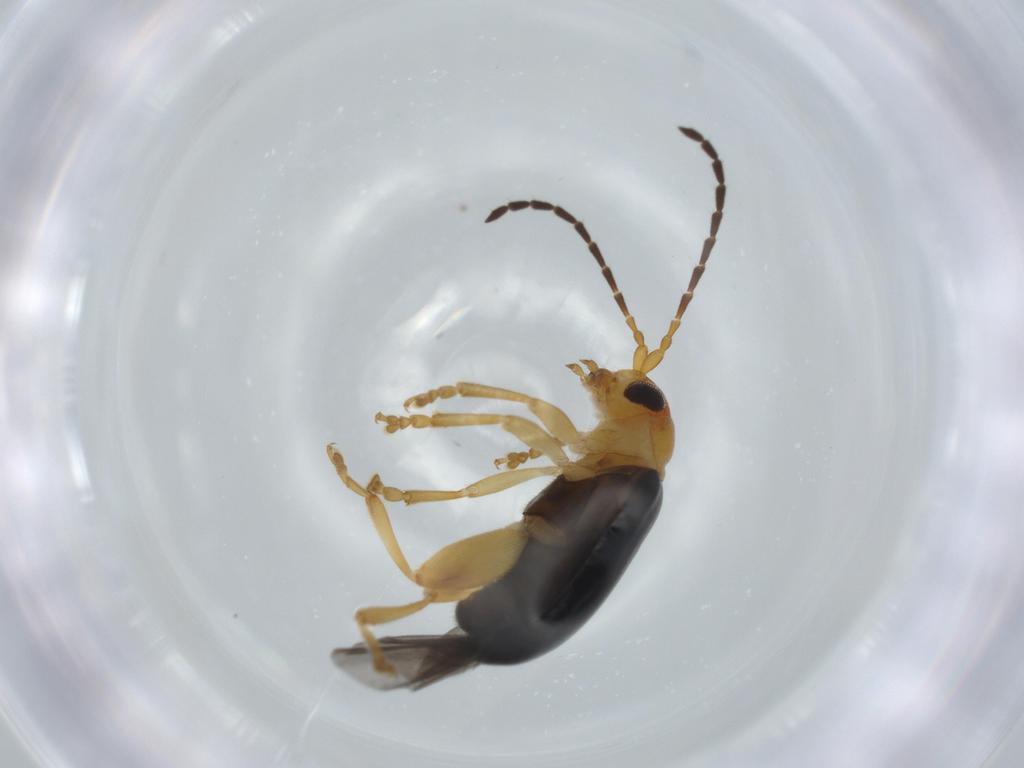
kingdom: Animalia
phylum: Arthropoda
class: Insecta
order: Coleoptera
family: Chrysomelidae
